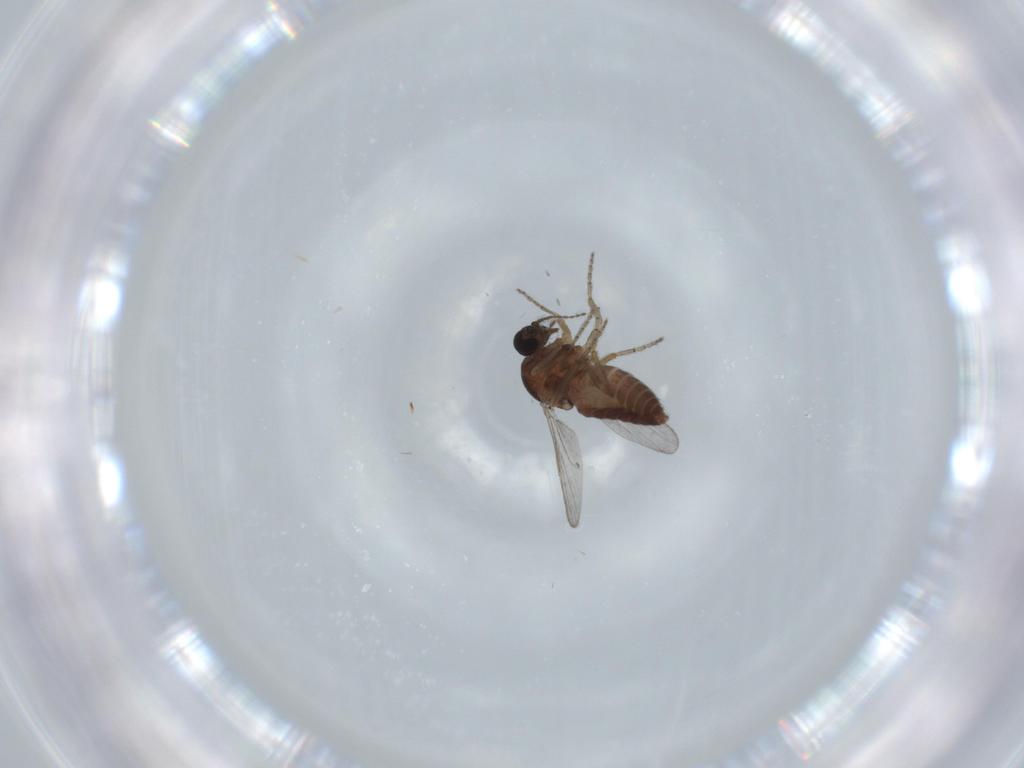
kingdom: Animalia
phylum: Arthropoda
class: Insecta
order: Diptera
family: Ceratopogonidae
